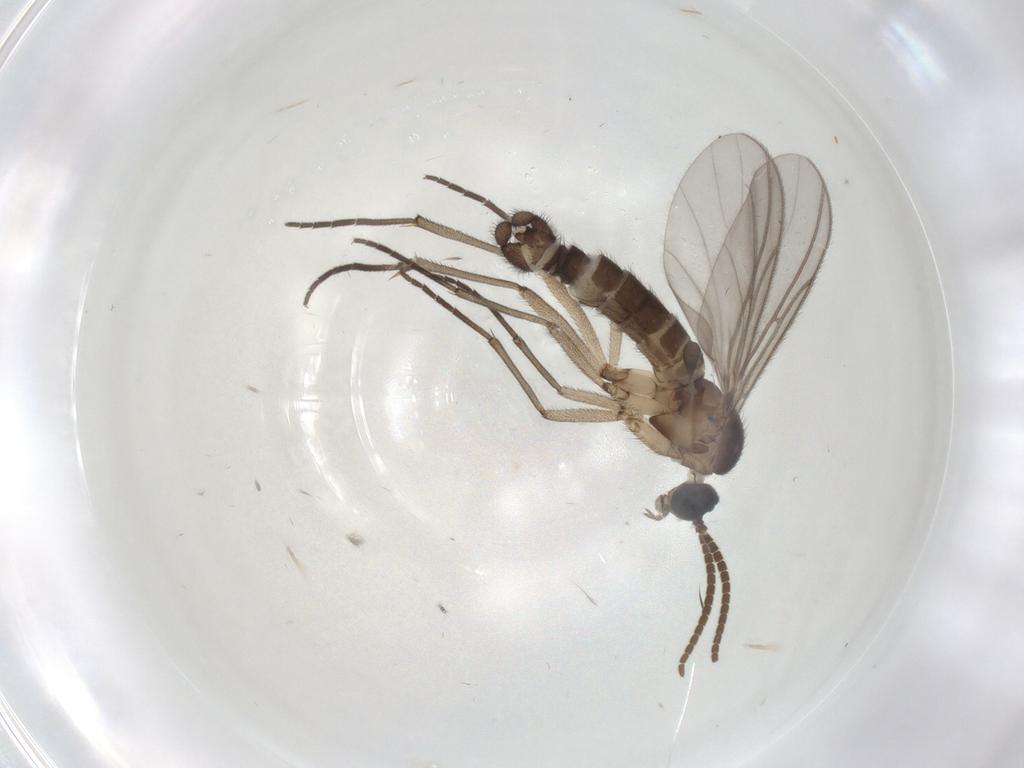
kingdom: Animalia
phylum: Arthropoda
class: Insecta
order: Diptera
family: Sciaridae
